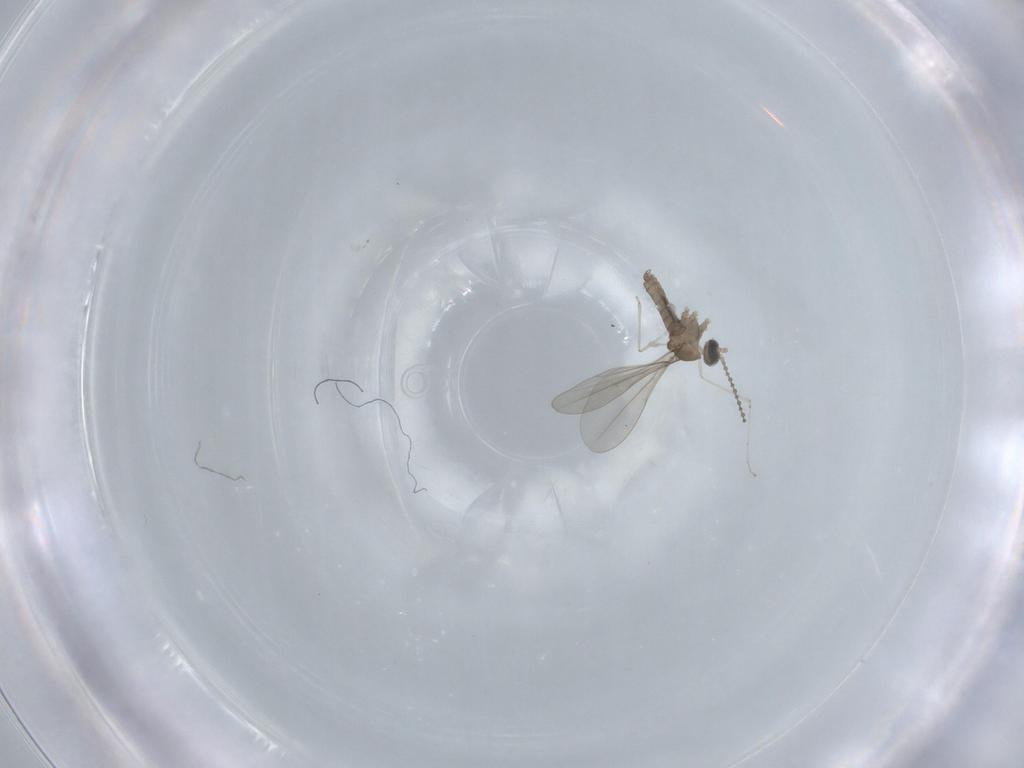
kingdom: Animalia
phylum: Arthropoda
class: Insecta
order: Diptera
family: Cecidomyiidae
